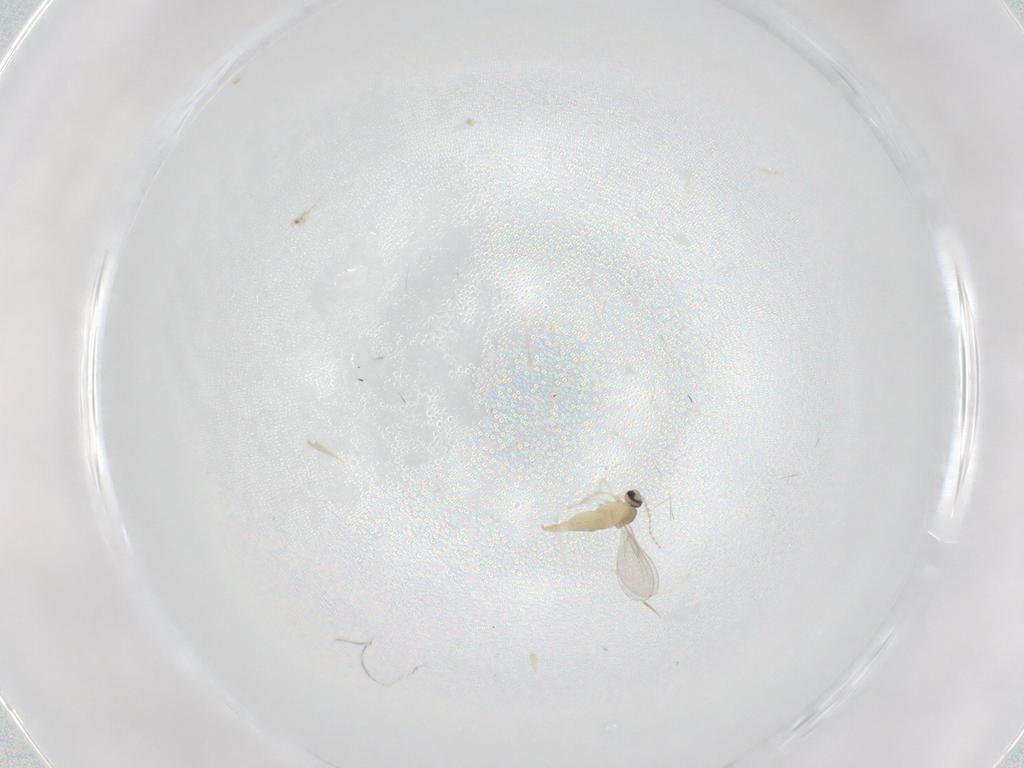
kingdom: Animalia
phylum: Arthropoda
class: Insecta
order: Diptera
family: Cecidomyiidae
